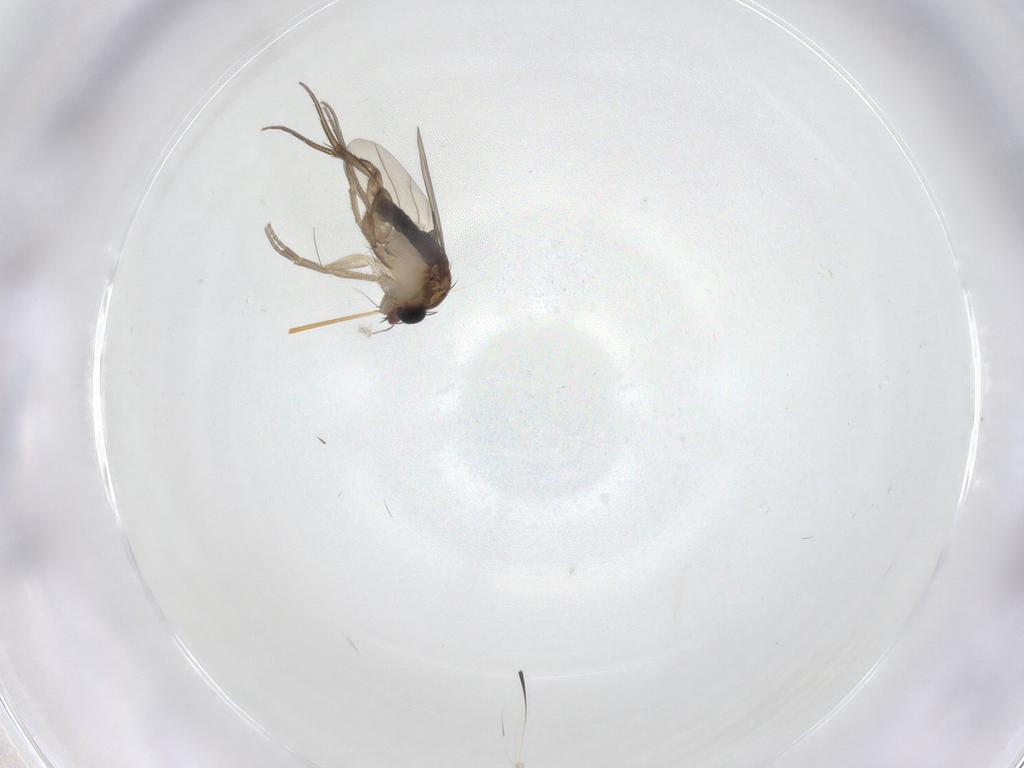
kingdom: Animalia
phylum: Arthropoda
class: Insecta
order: Diptera
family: Phoridae
